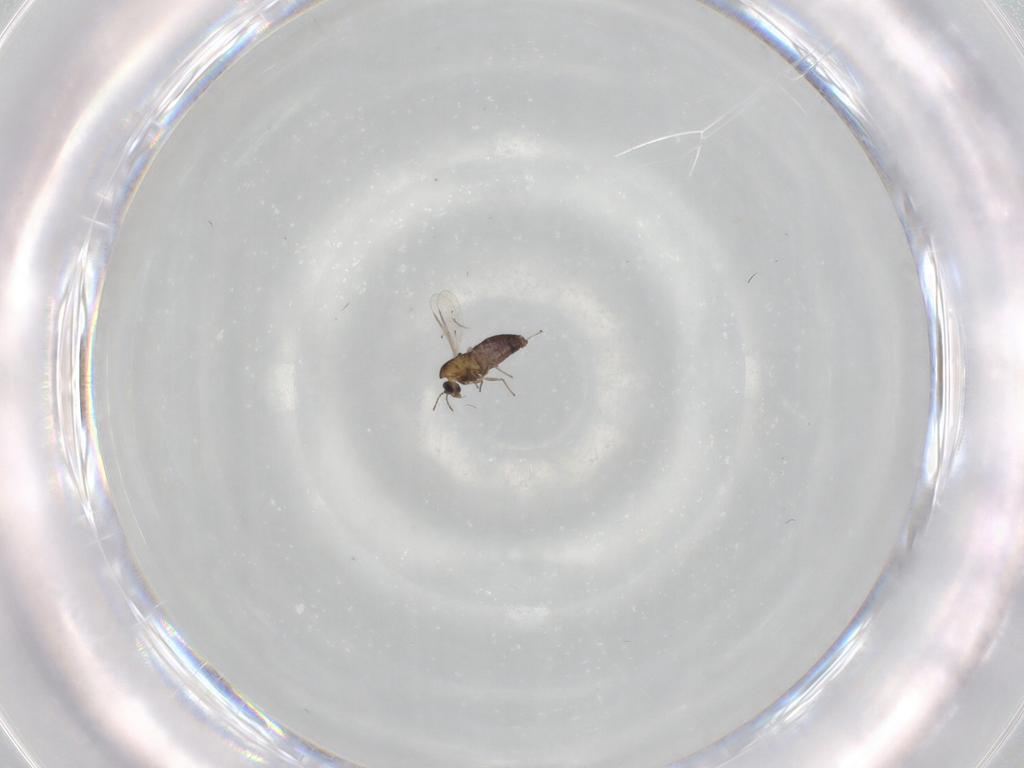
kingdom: Animalia
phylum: Arthropoda
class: Insecta
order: Diptera
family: Chironomidae
